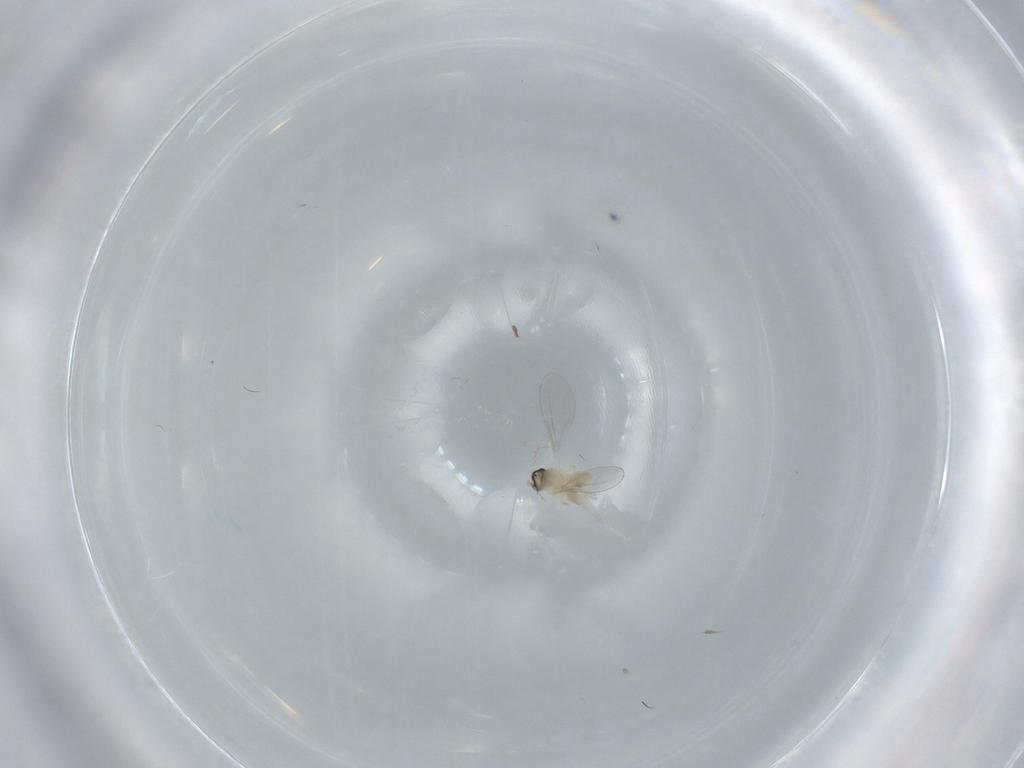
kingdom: Animalia
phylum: Arthropoda
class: Insecta
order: Diptera
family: Cecidomyiidae
